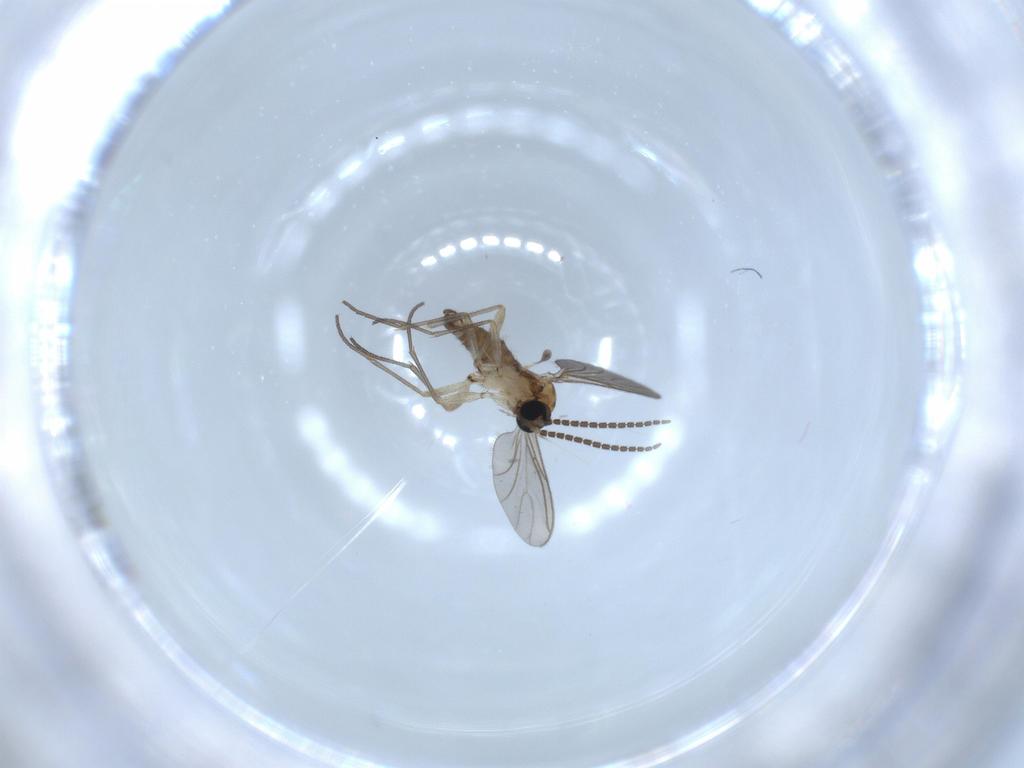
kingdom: Animalia
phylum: Arthropoda
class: Insecta
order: Diptera
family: Sciaridae
